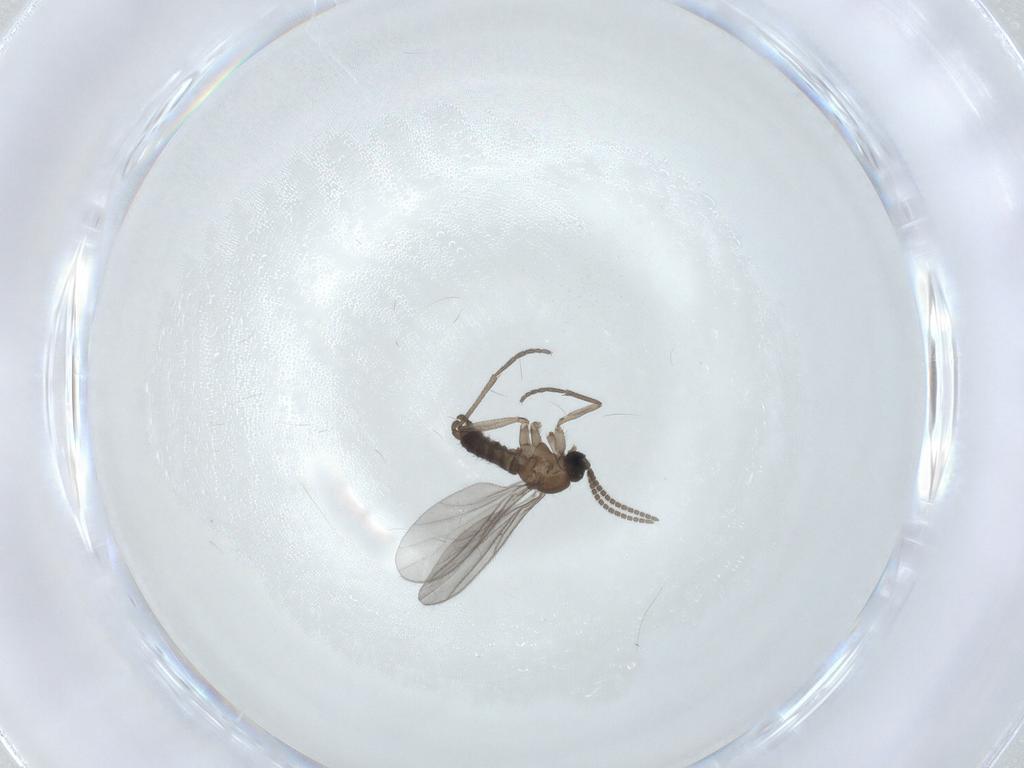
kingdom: Animalia
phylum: Arthropoda
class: Insecta
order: Diptera
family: Sciaridae
